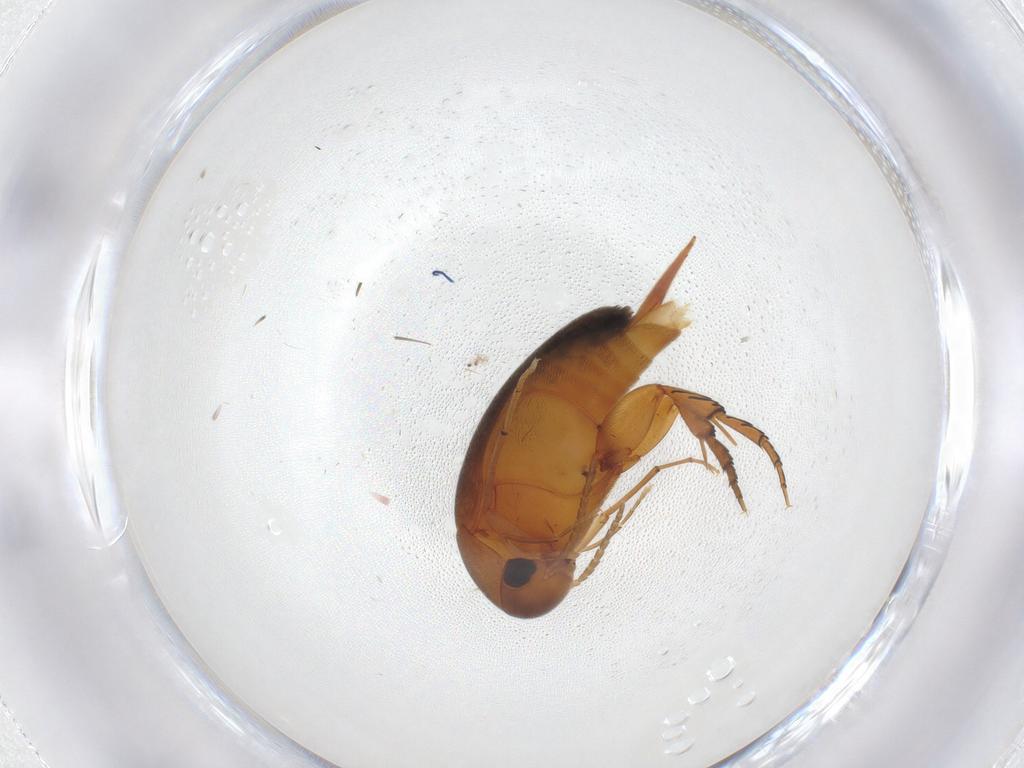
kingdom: Animalia
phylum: Arthropoda
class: Insecta
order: Coleoptera
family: Mordellidae
